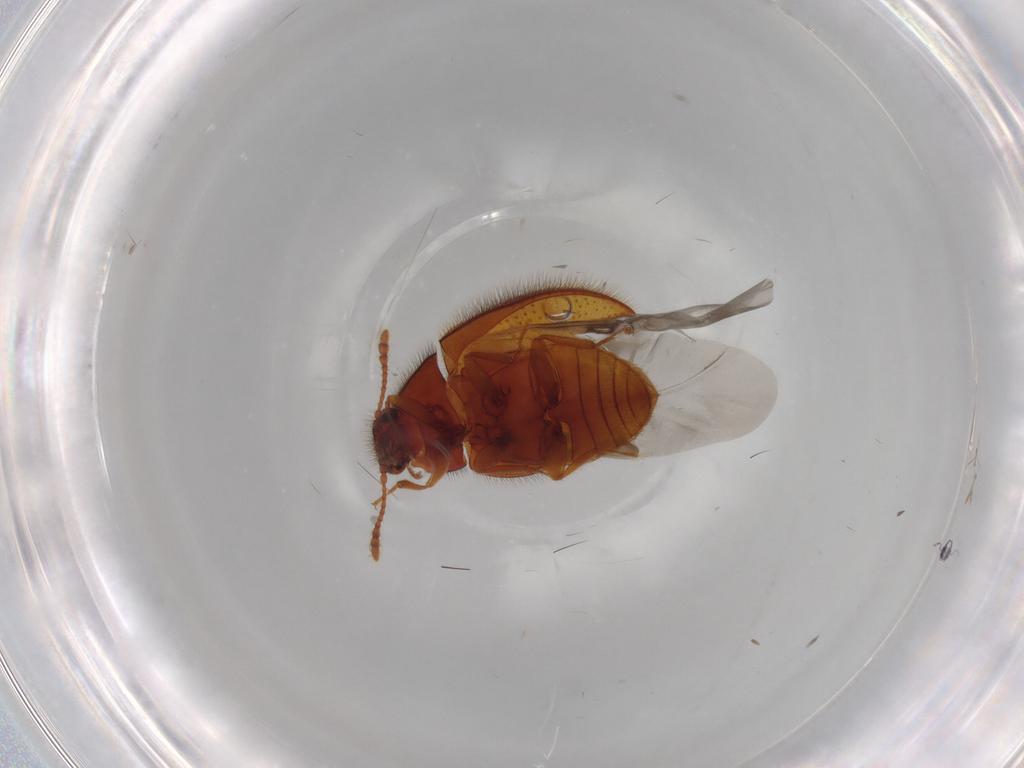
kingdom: Animalia
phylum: Arthropoda
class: Insecta
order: Coleoptera
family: Biphyllidae
